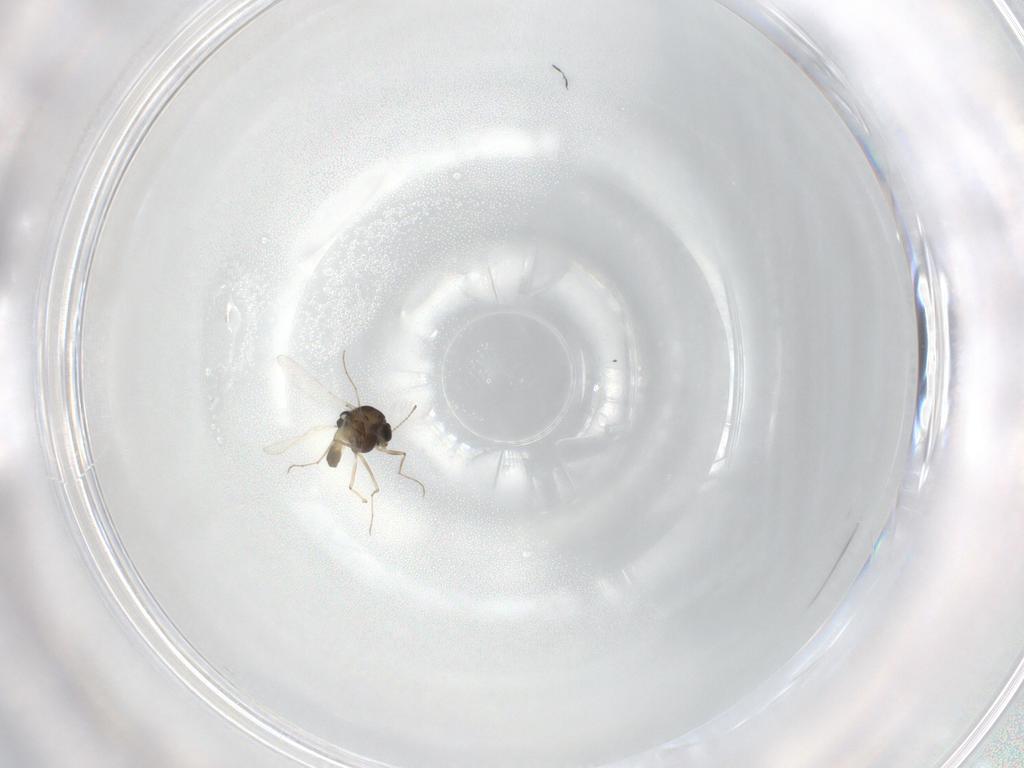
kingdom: Animalia
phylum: Arthropoda
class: Insecta
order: Diptera
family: Chironomidae
